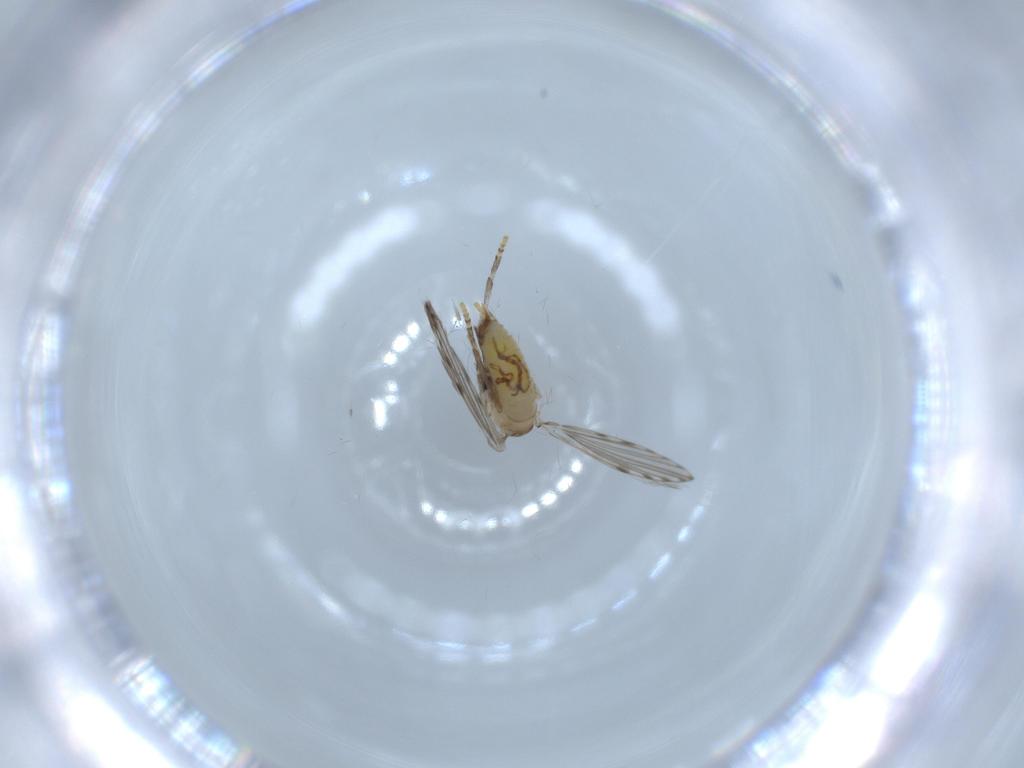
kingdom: Animalia
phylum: Arthropoda
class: Insecta
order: Diptera
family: Psychodidae
